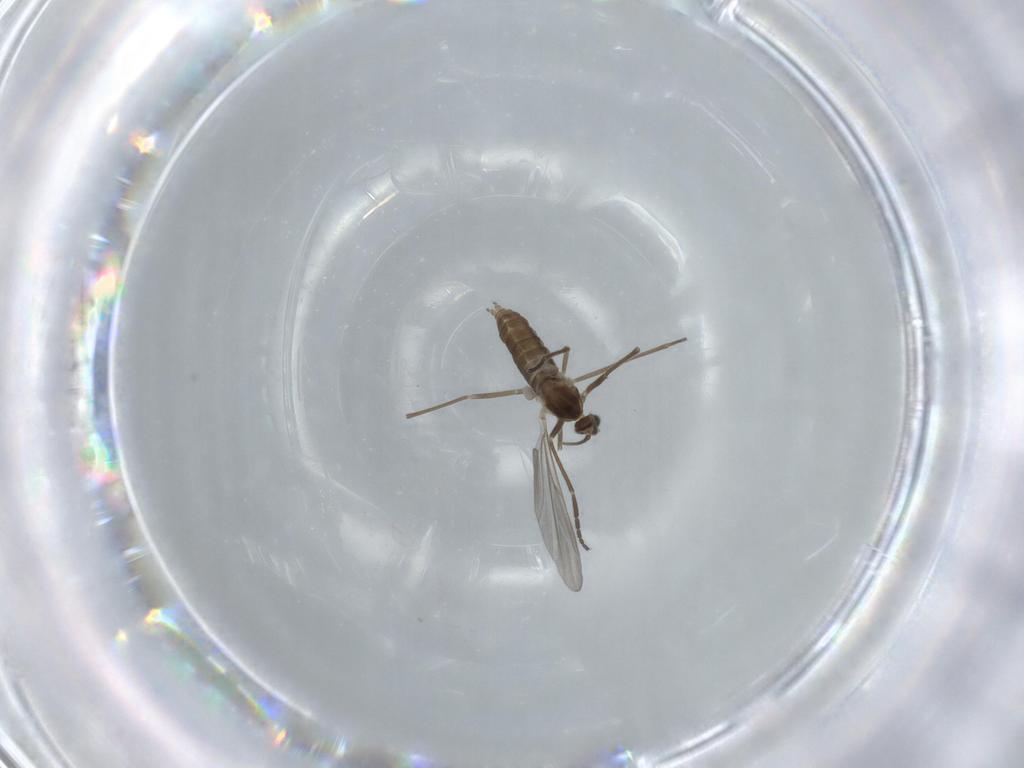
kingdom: Animalia
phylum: Arthropoda
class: Insecta
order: Diptera
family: Cecidomyiidae
